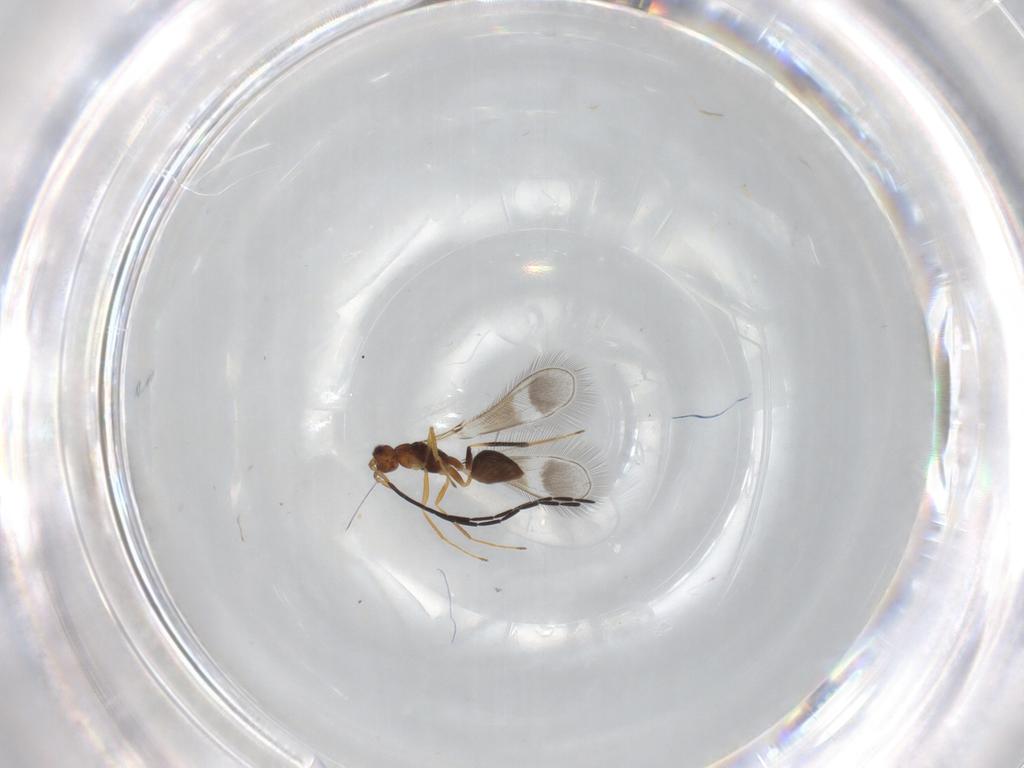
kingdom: Animalia
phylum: Arthropoda
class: Insecta
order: Hymenoptera
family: Mymaridae
